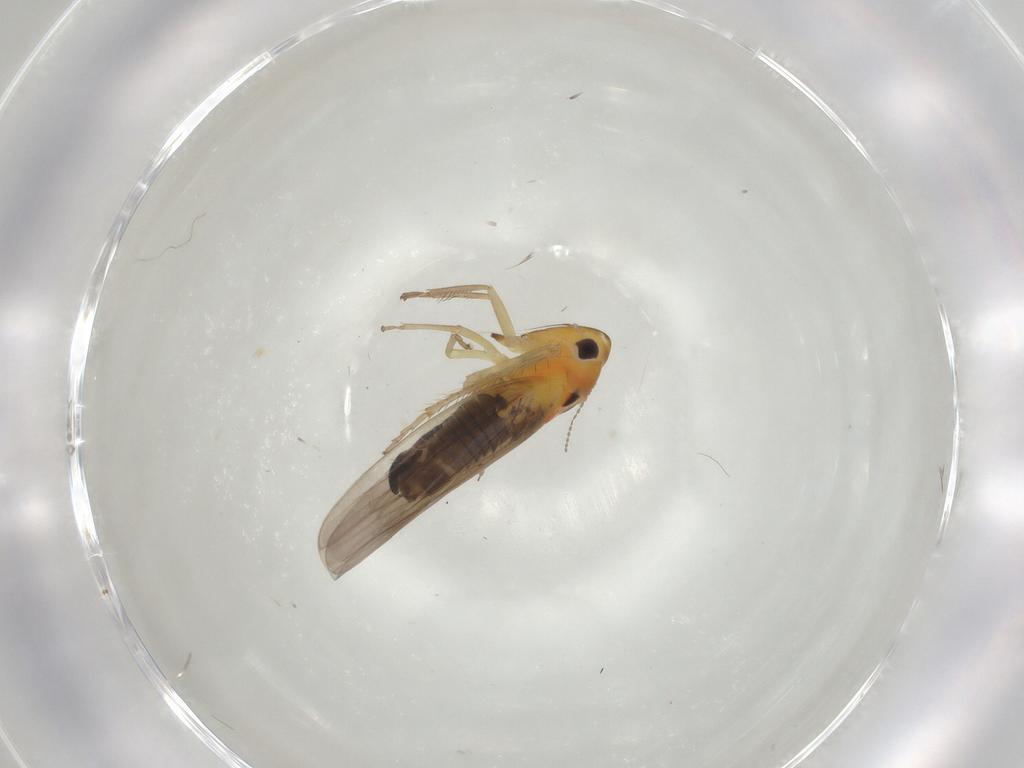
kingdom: Animalia
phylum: Arthropoda
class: Insecta
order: Hemiptera
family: Cicadellidae
